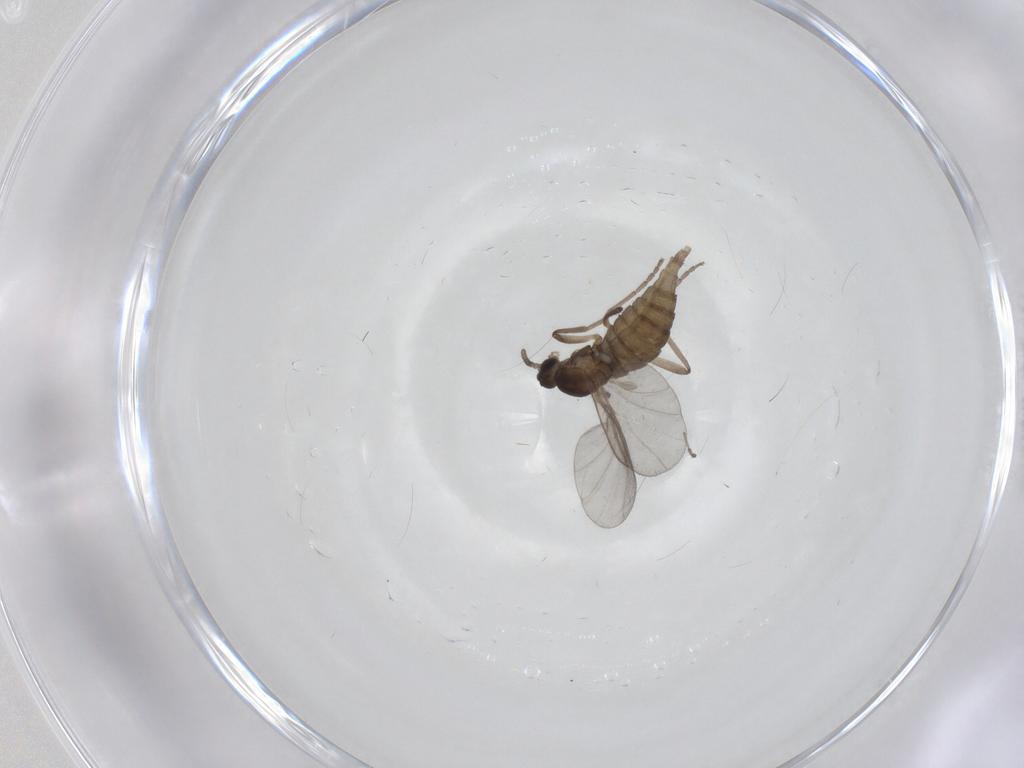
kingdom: Animalia
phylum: Arthropoda
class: Insecta
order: Diptera
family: Cecidomyiidae
